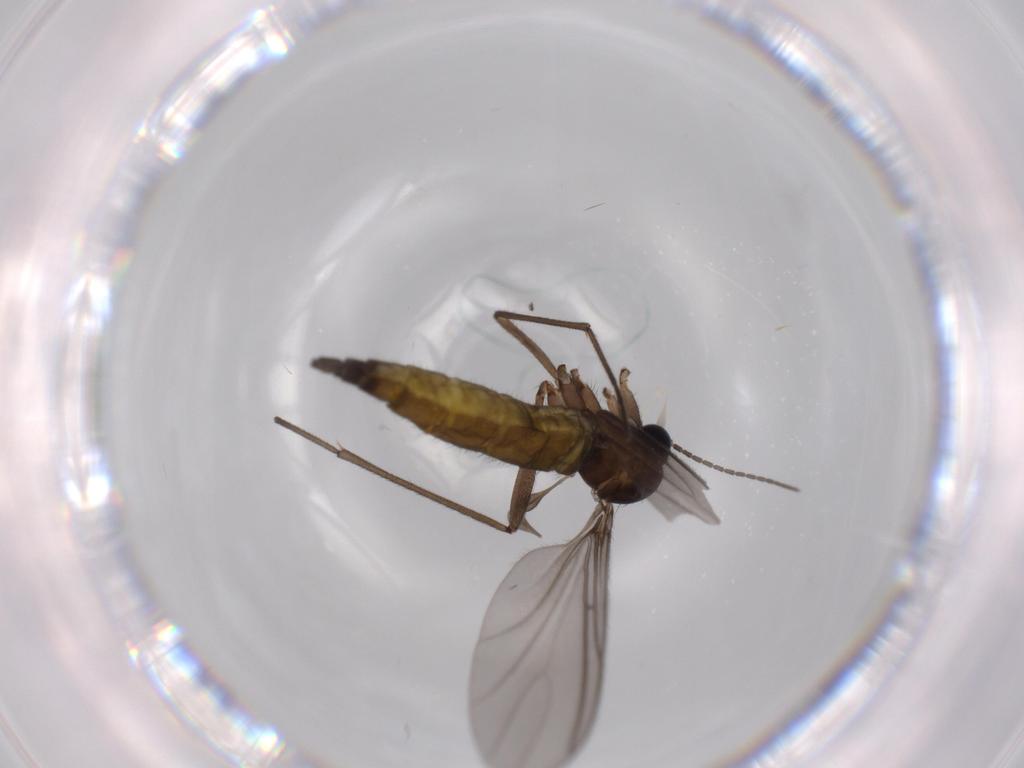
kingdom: Animalia
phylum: Arthropoda
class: Insecta
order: Diptera
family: Sciaridae
